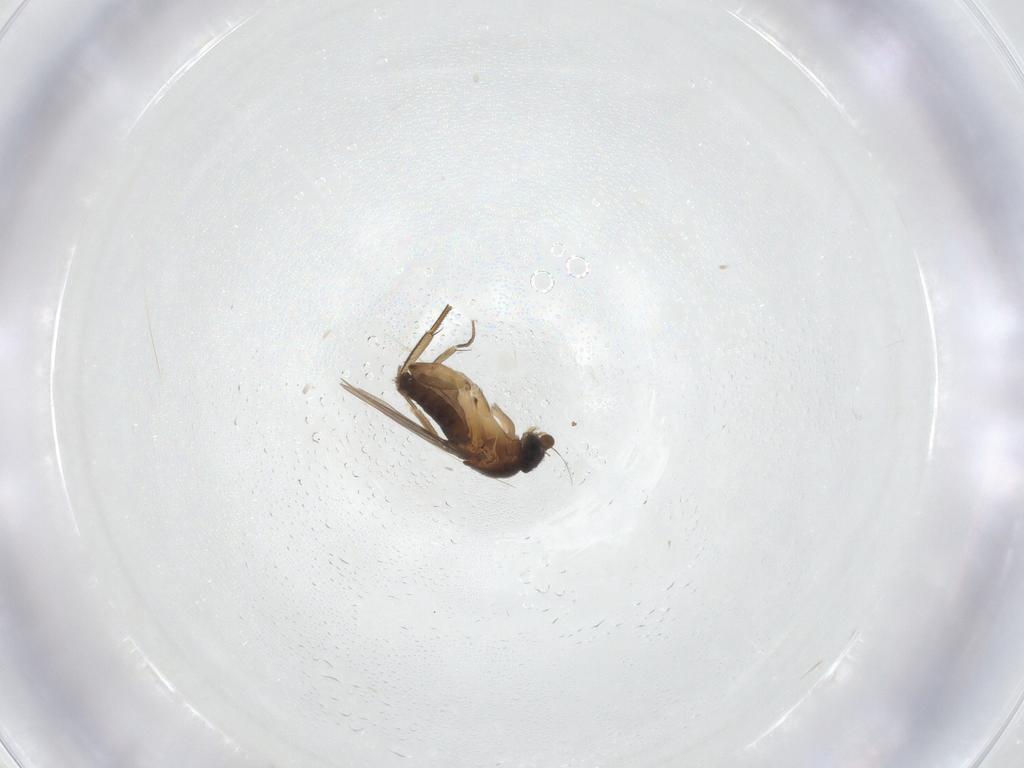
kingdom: Animalia
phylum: Arthropoda
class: Insecta
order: Diptera
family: Phoridae
